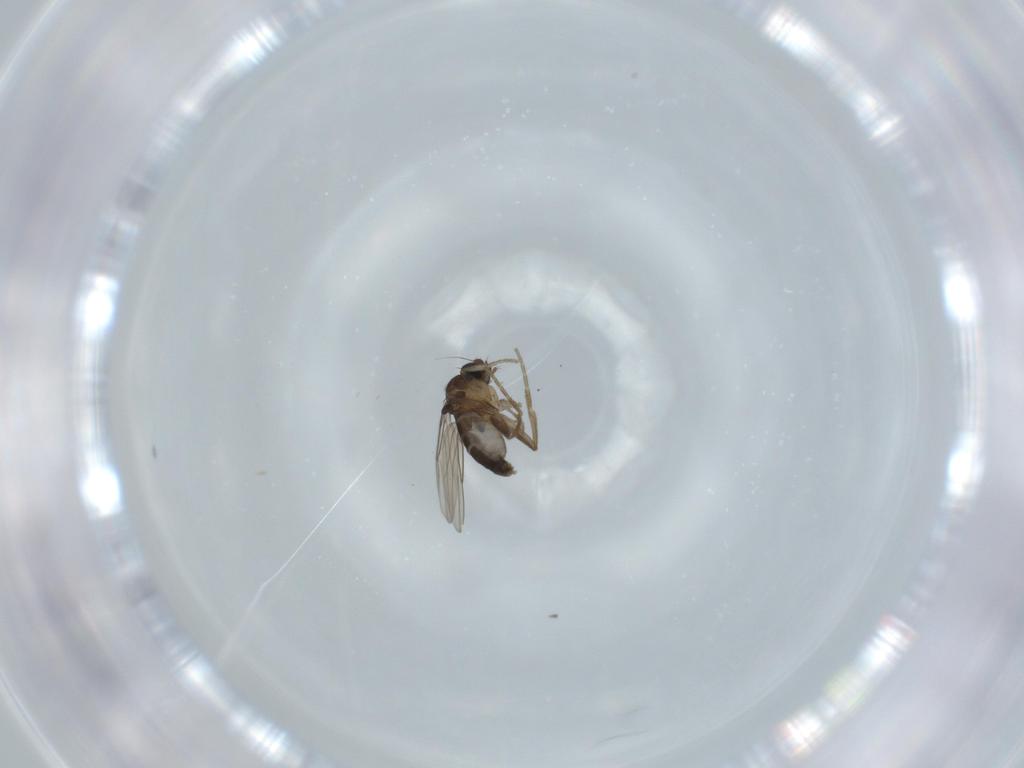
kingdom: Animalia
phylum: Arthropoda
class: Insecta
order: Diptera
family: Phoridae
